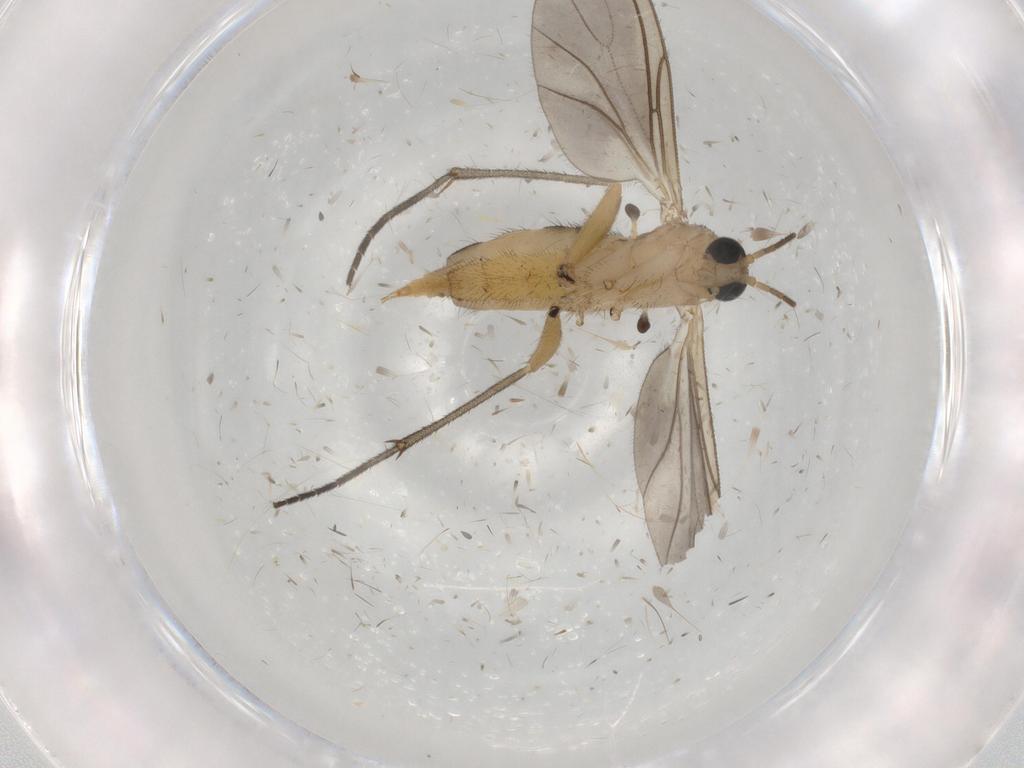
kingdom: Animalia
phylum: Arthropoda
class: Insecta
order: Diptera
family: Sciaridae
